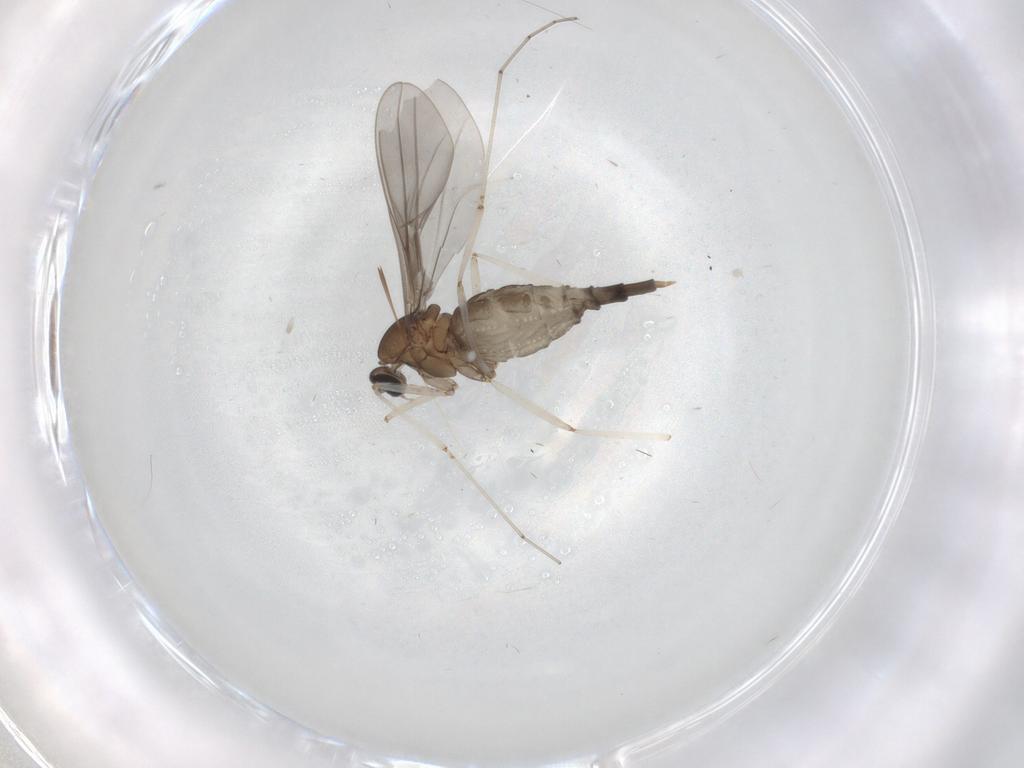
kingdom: Animalia
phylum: Arthropoda
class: Insecta
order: Diptera
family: Cecidomyiidae
